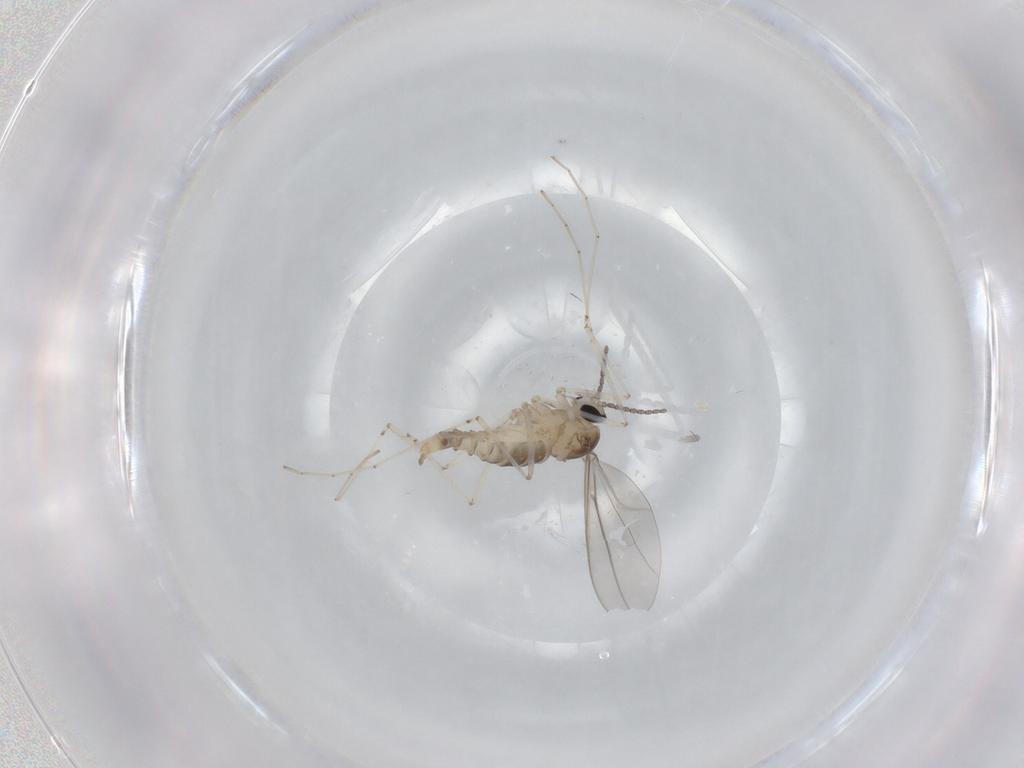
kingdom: Animalia
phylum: Arthropoda
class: Insecta
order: Diptera
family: Cecidomyiidae
